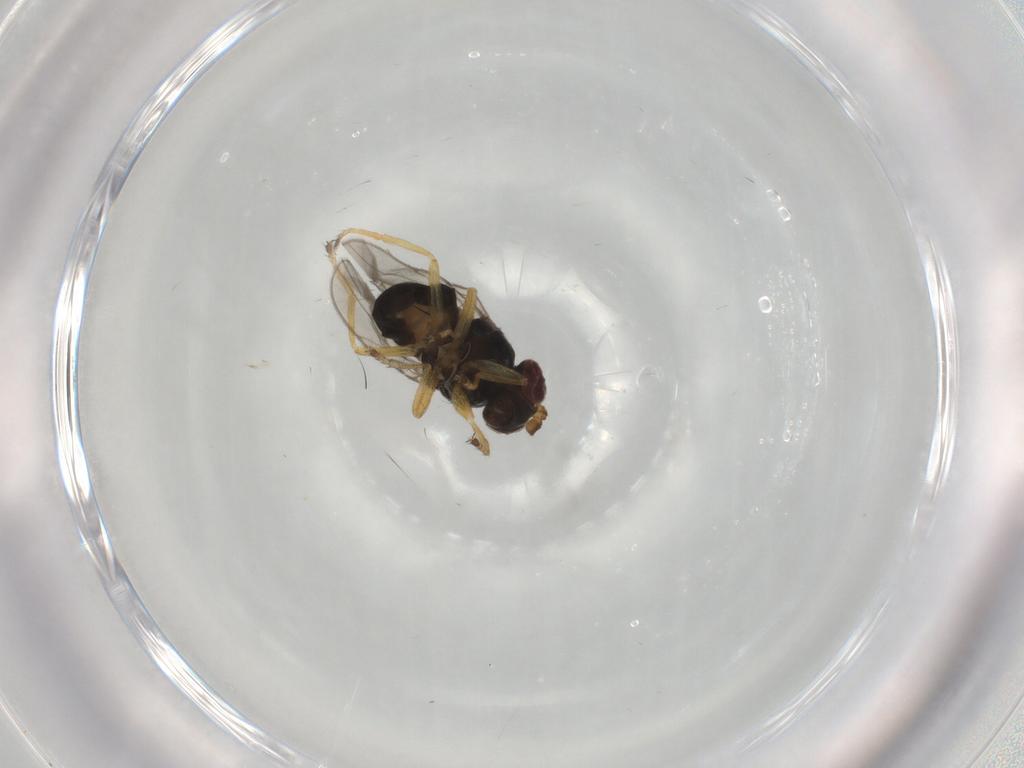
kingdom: Animalia
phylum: Arthropoda
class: Insecta
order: Diptera
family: Ephydridae
